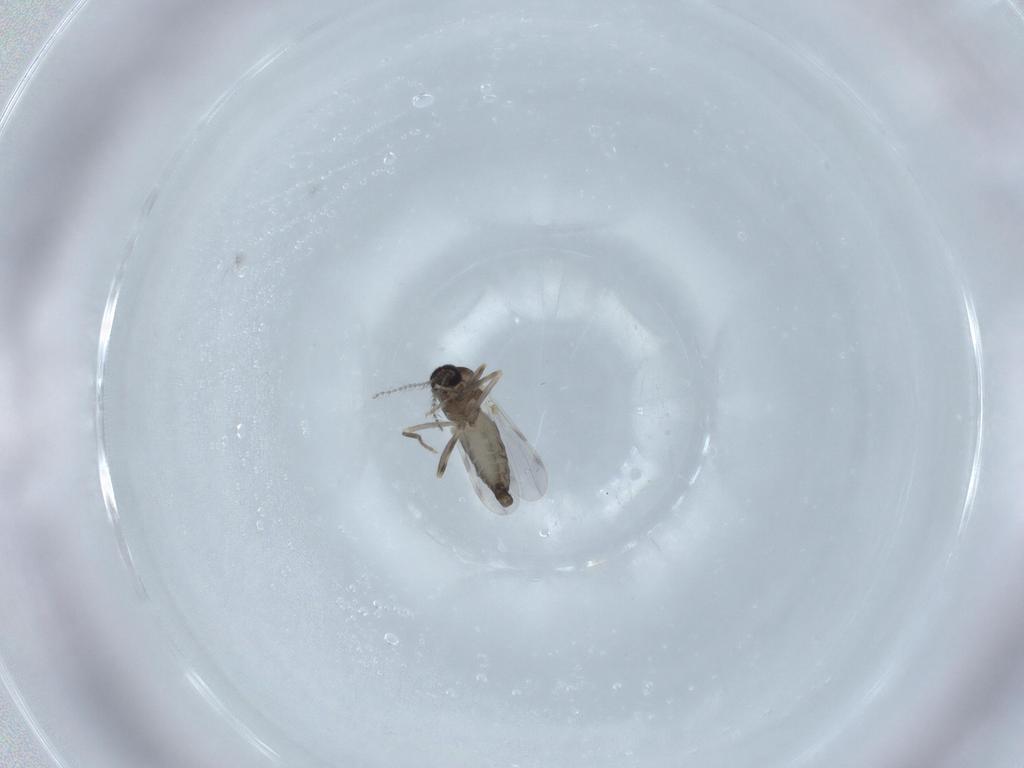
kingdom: Animalia
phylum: Arthropoda
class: Insecta
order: Diptera
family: Ceratopogonidae
